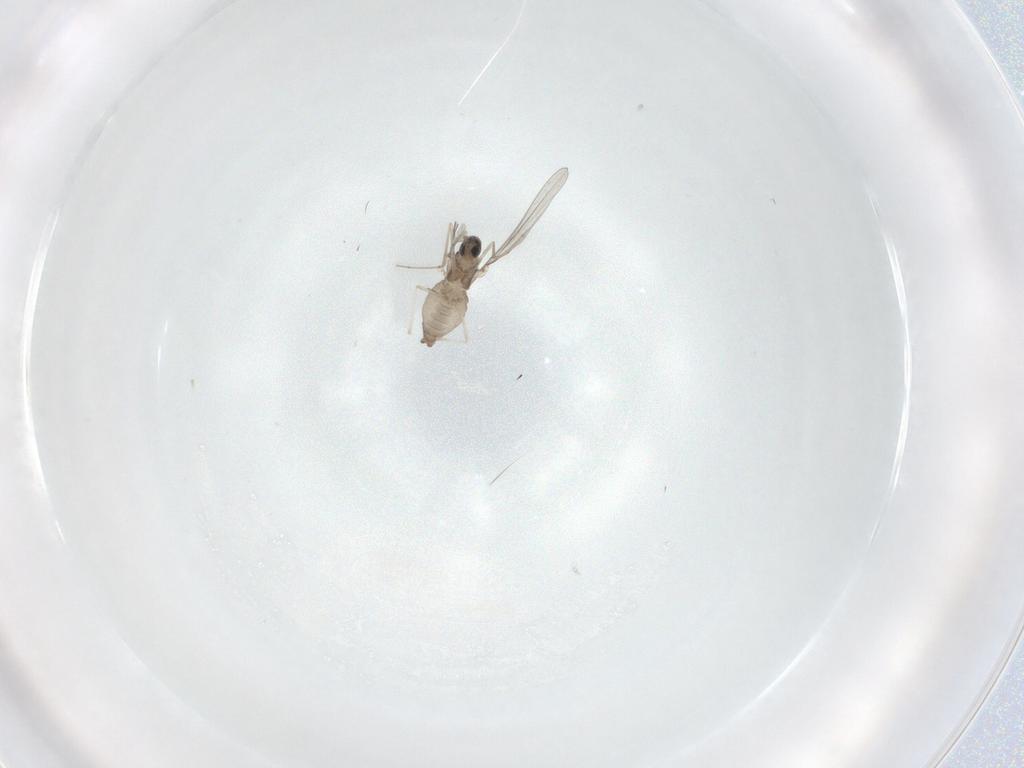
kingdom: Animalia
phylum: Arthropoda
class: Insecta
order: Diptera
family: Cecidomyiidae
